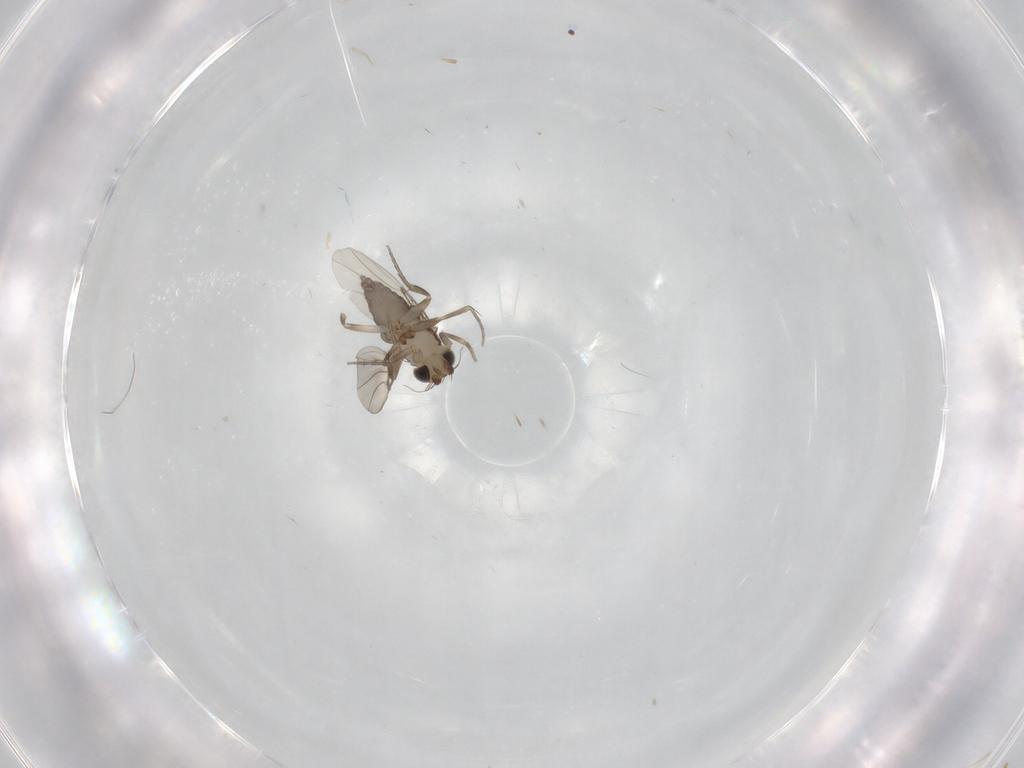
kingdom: Animalia
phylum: Arthropoda
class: Insecta
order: Diptera
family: Phoridae
